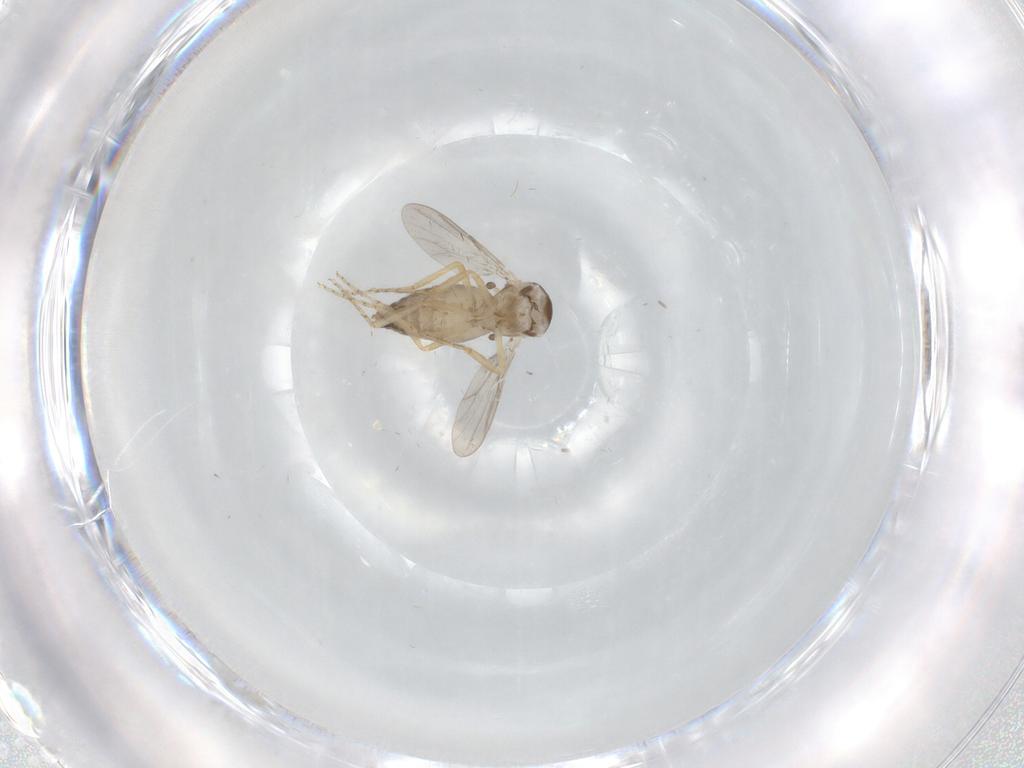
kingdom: Animalia
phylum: Arthropoda
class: Insecta
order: Diptera
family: Ceratopogonidae
